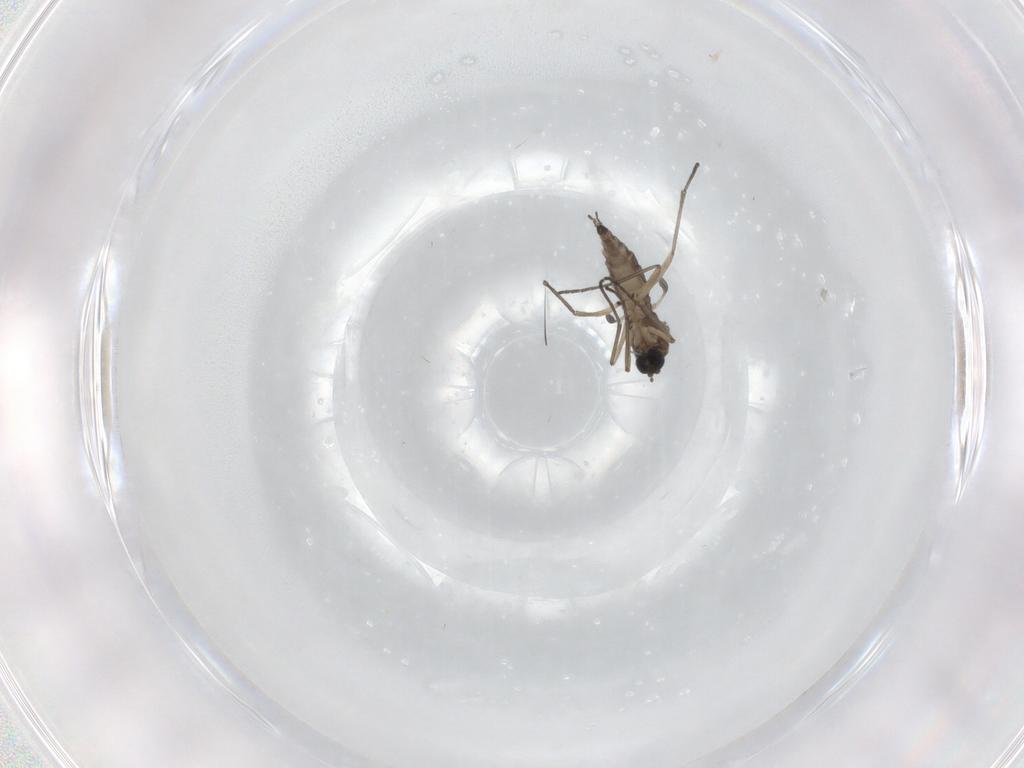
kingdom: Animalia
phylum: Arthropoda
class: Insecta
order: Diptera
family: Sciaridae
